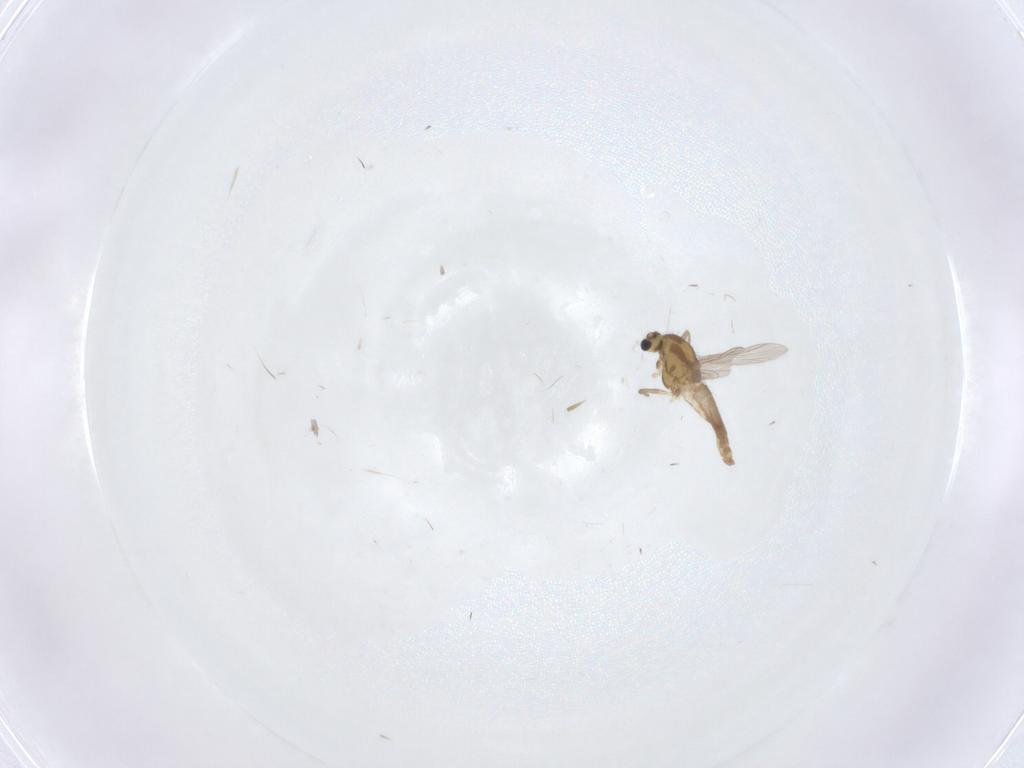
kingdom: Animalia
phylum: Arthropoda
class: Insecta
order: Diptera
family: Chironomidae
